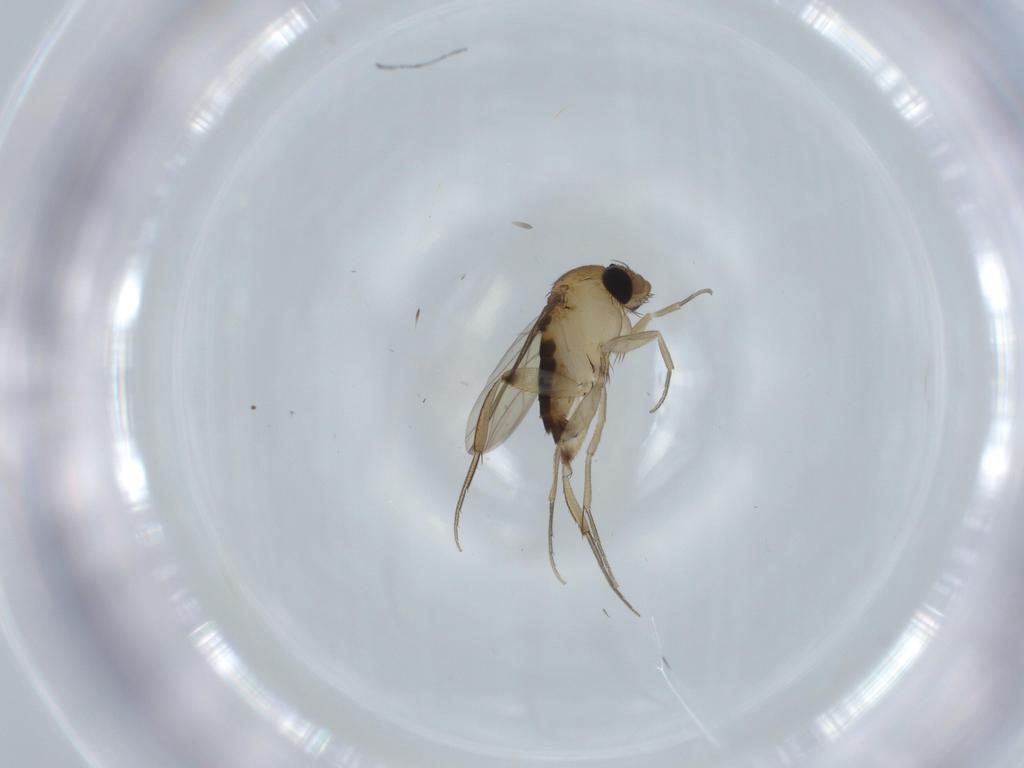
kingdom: Animalia
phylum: Arthropoda
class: Insecta
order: Diptera
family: Phoridae
